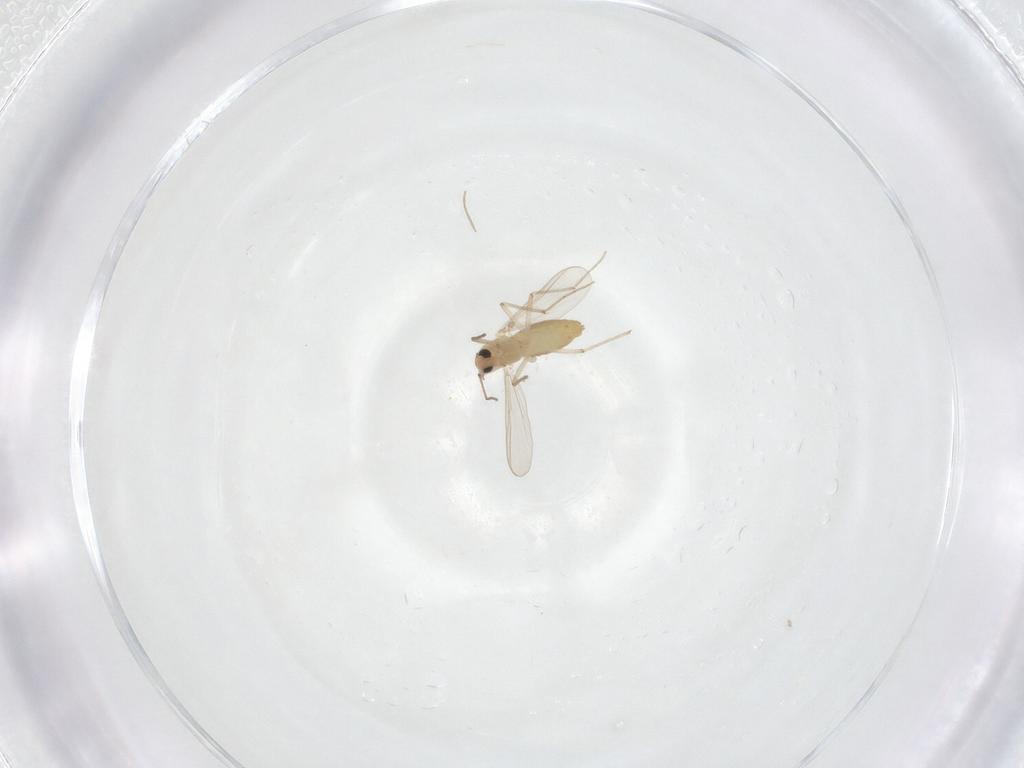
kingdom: Animalia
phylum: Arthropoda
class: Insecta
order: Diptera
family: Chironomidae
